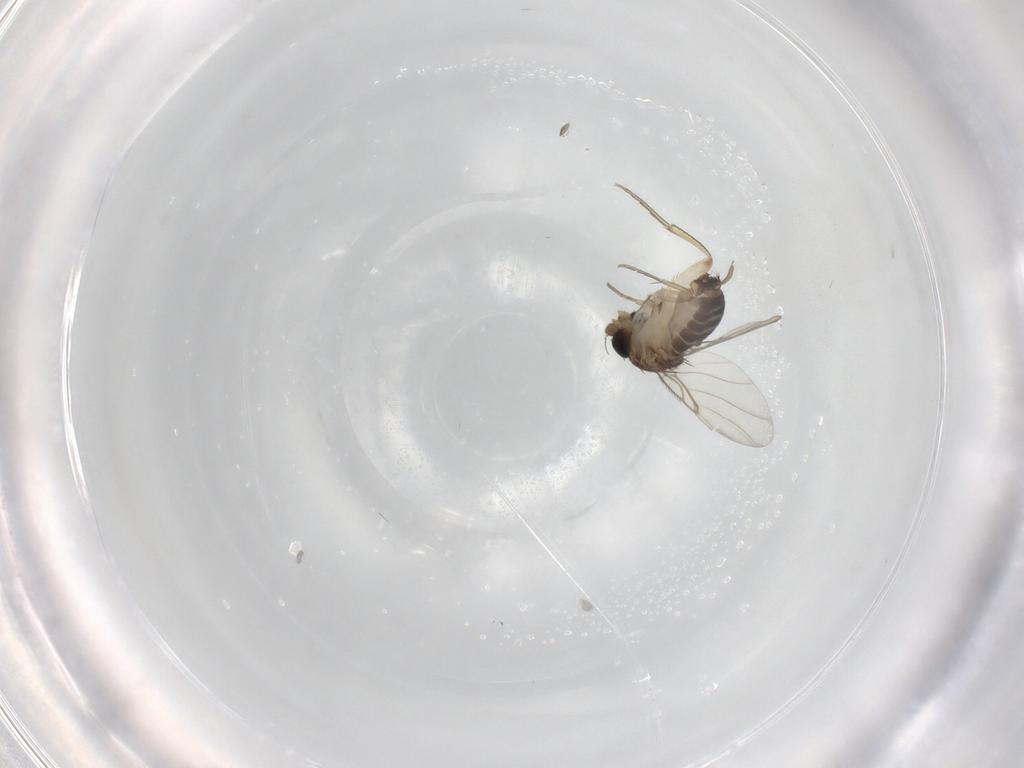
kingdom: Animalia
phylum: Arthropoda
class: Insecta
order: Diptera
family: Phoridae
